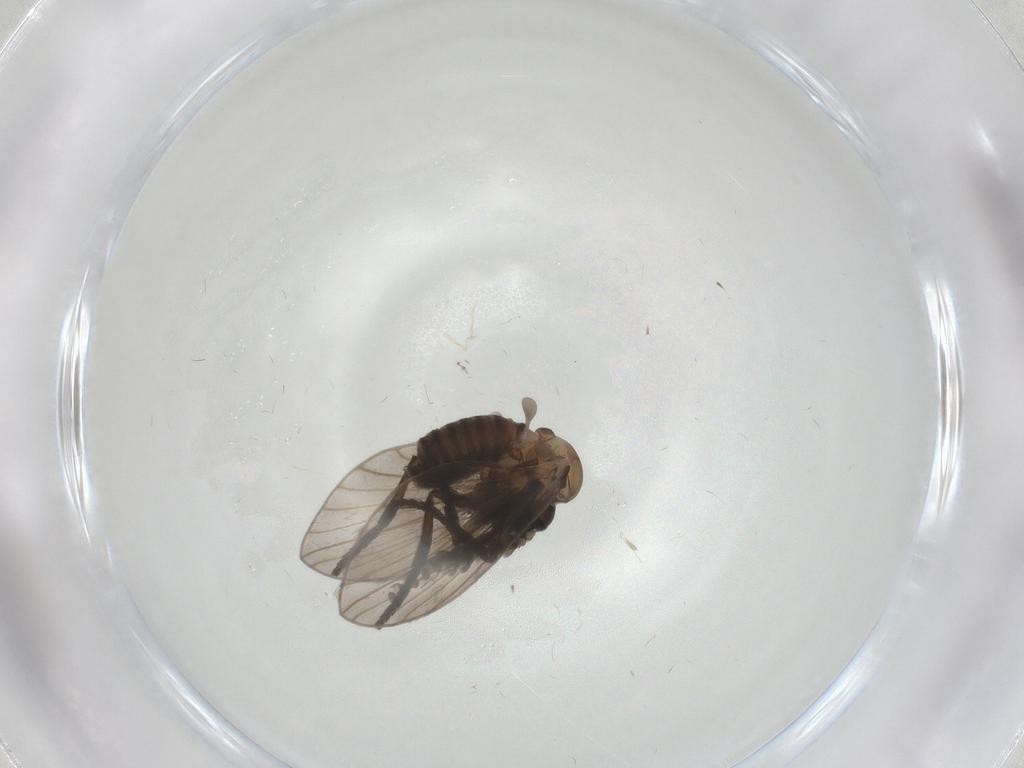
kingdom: Animalia
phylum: Arthropoda
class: Insecta
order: Diptera
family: Psychodidae
